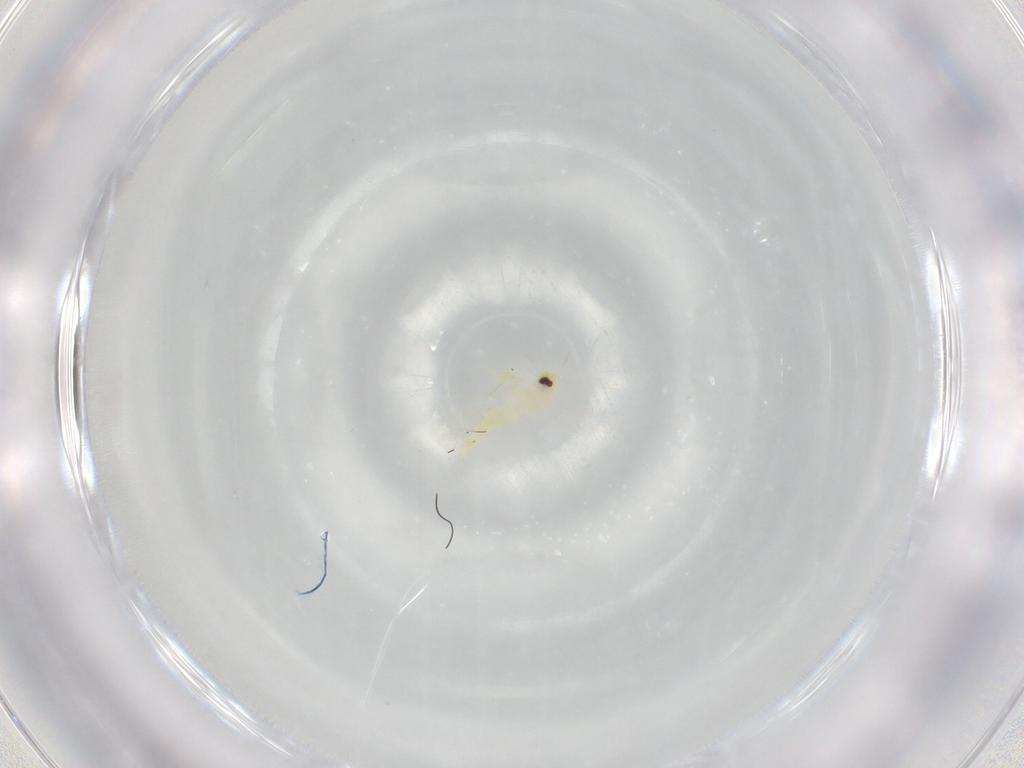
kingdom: Animalia
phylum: Arthropoda
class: Insecta
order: Hemiptera
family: Aleyrodidae
